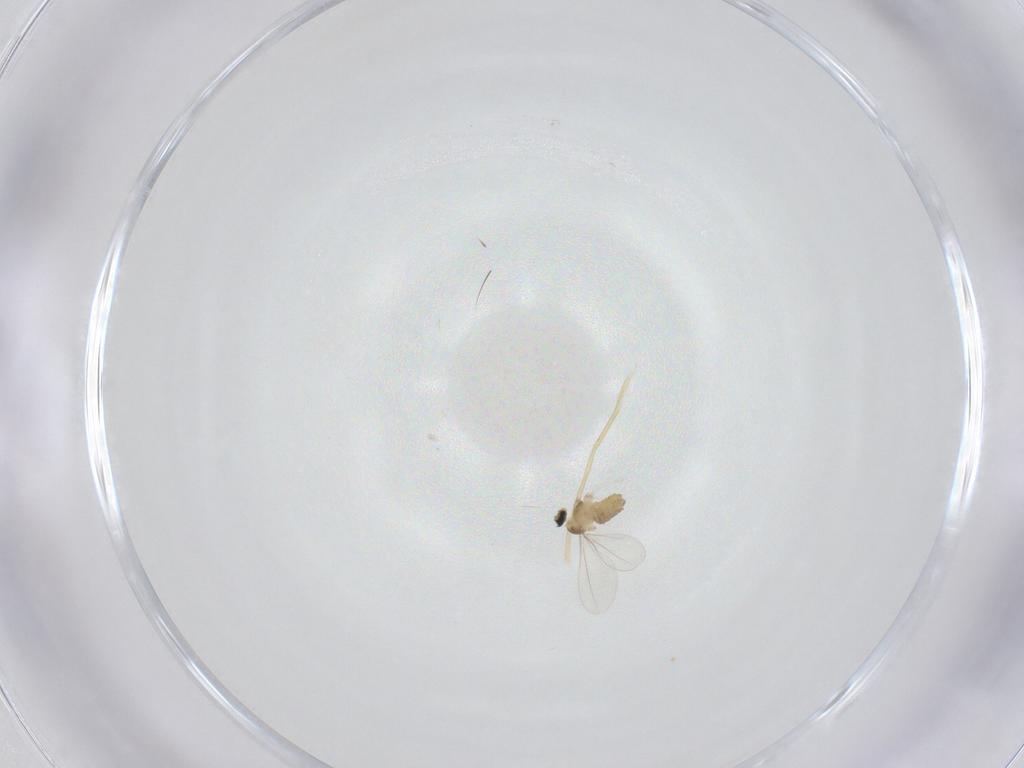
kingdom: Animalia
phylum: Arthropoda
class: Insecta
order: Diptera
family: Cecidomyiidae
